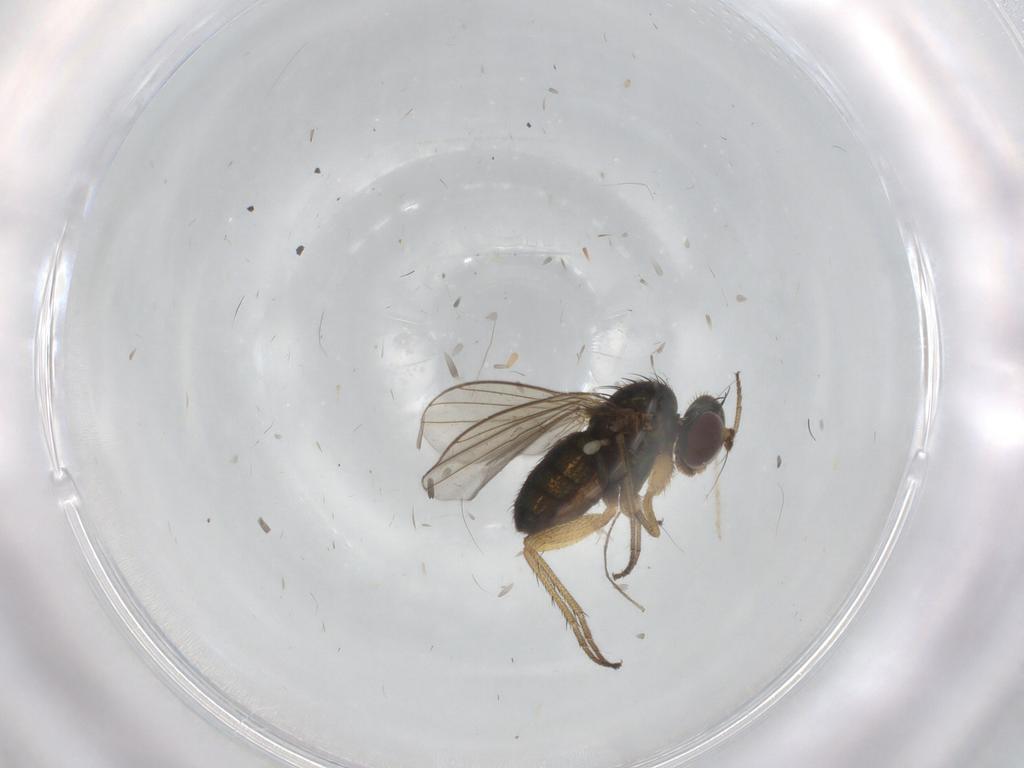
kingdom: Animalia
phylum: Arthropoda
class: Insecta
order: Diptera
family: Chironomidae
